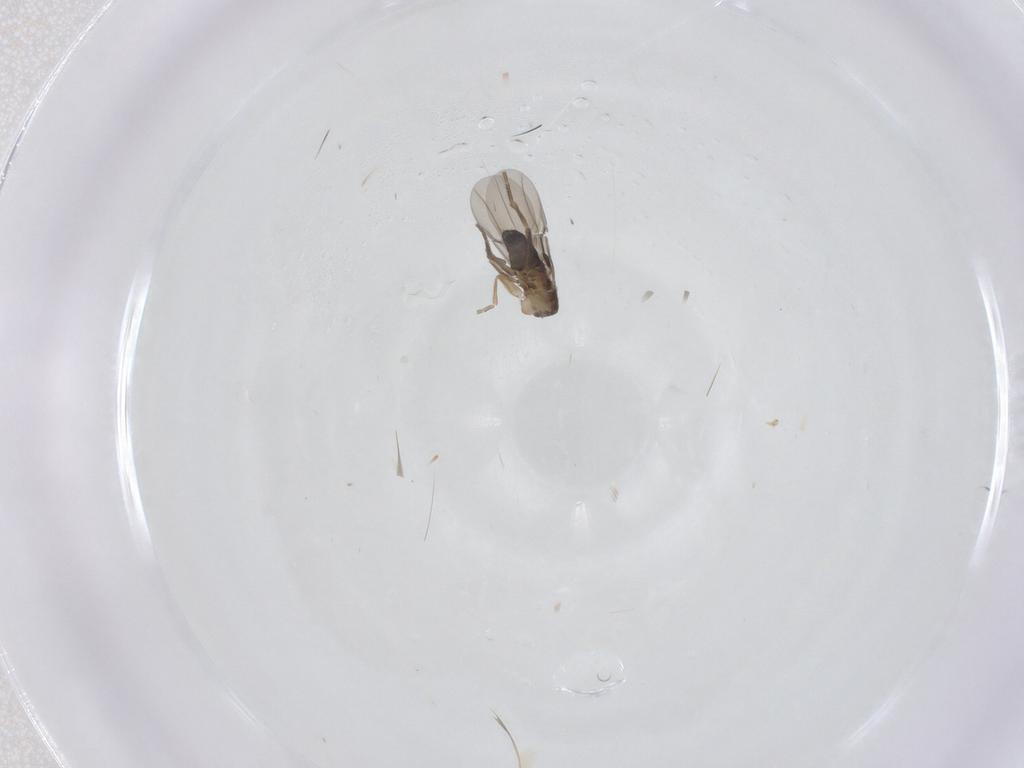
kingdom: Animalia
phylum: Arthropoda
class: Insecta
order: Diptera
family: Phoridae
